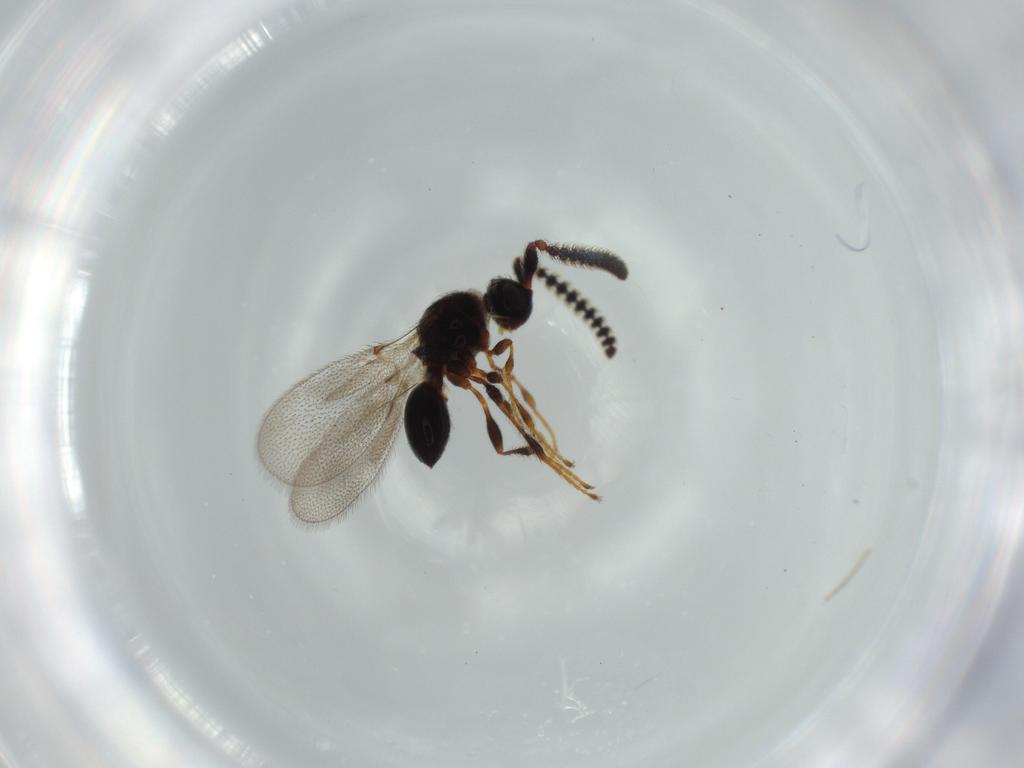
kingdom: Animalia
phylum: Arthropoda
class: Insecta
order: Hymenoptera
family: Diapriidae
